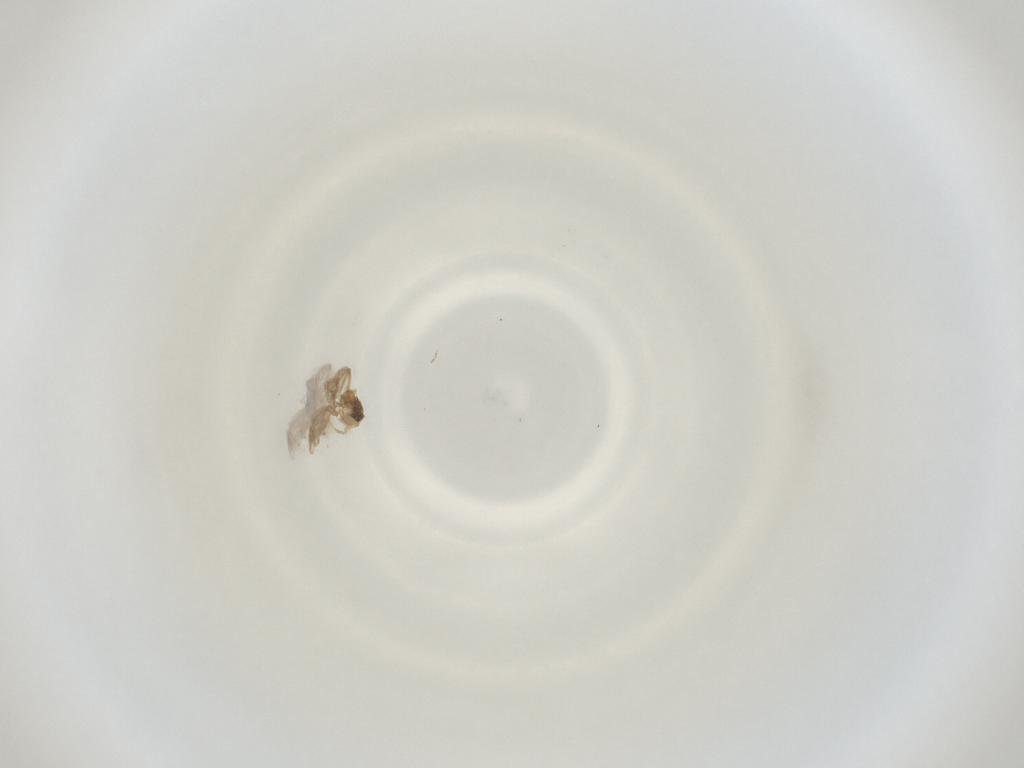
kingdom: Animalia
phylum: Arthropoda
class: Insecta
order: Diptera
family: Cecidomyiidae
